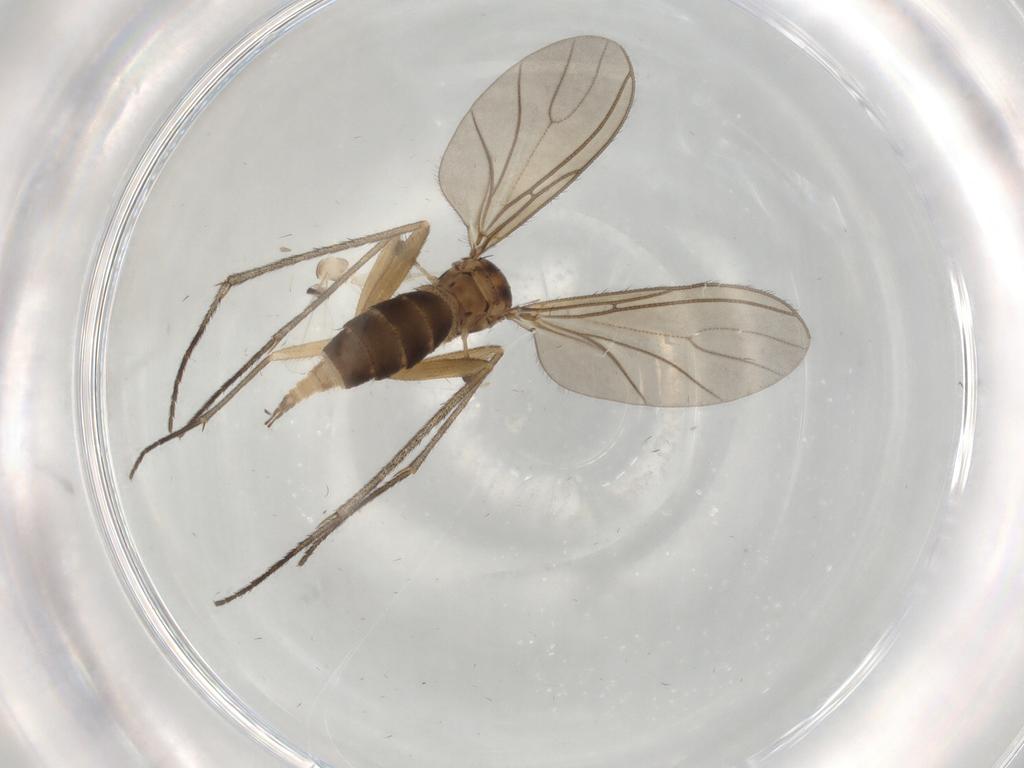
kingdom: Animalia
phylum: Arthropoda
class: Insecta
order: Diptera
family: Sciaridae
